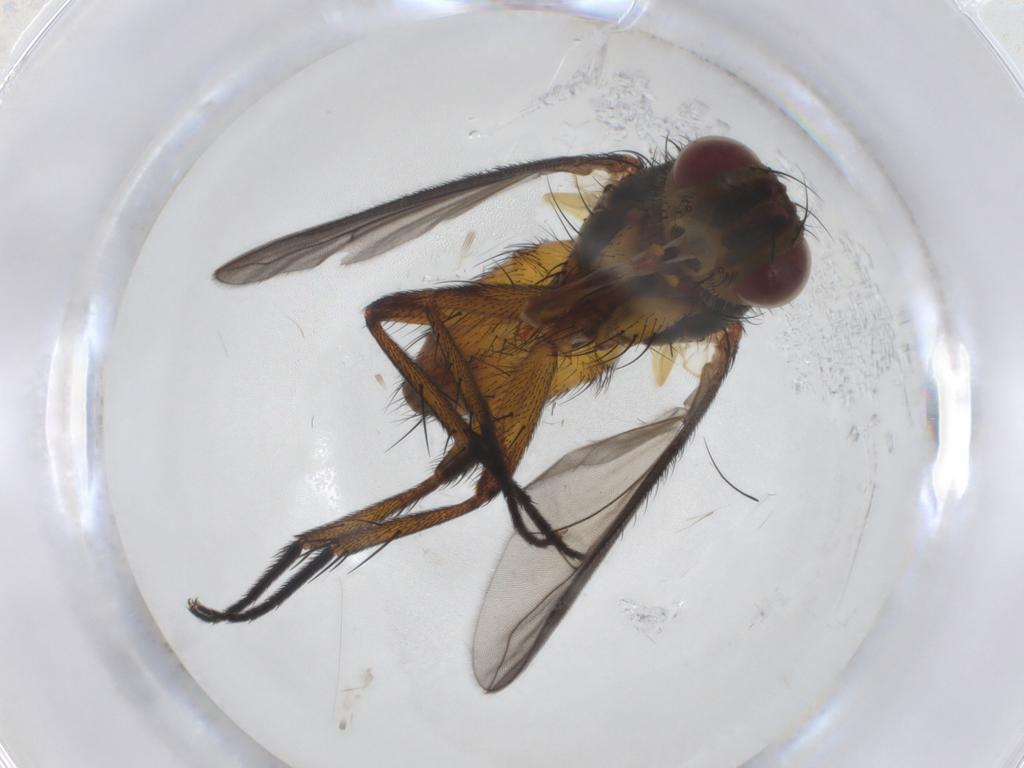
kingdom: Animalia
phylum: Arthropoda
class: Insecta
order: Diptera
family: Tachinidae
